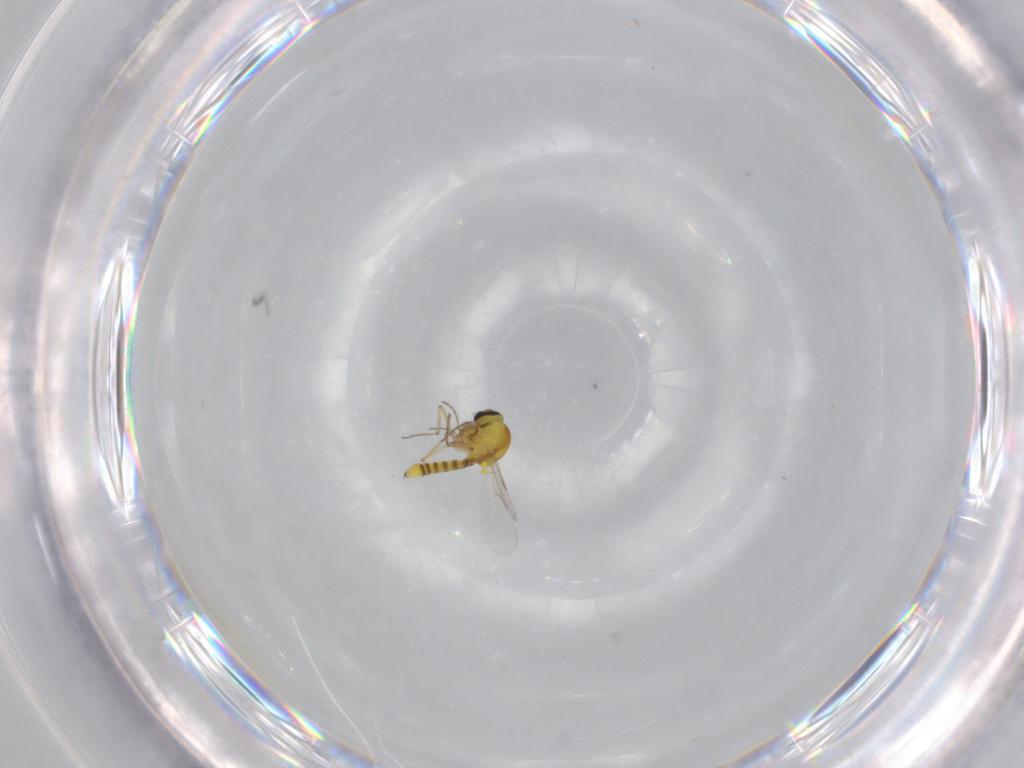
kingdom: Animalia
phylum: Arthropoda
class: Insecta
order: Diptera
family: Ceratopogonidae
